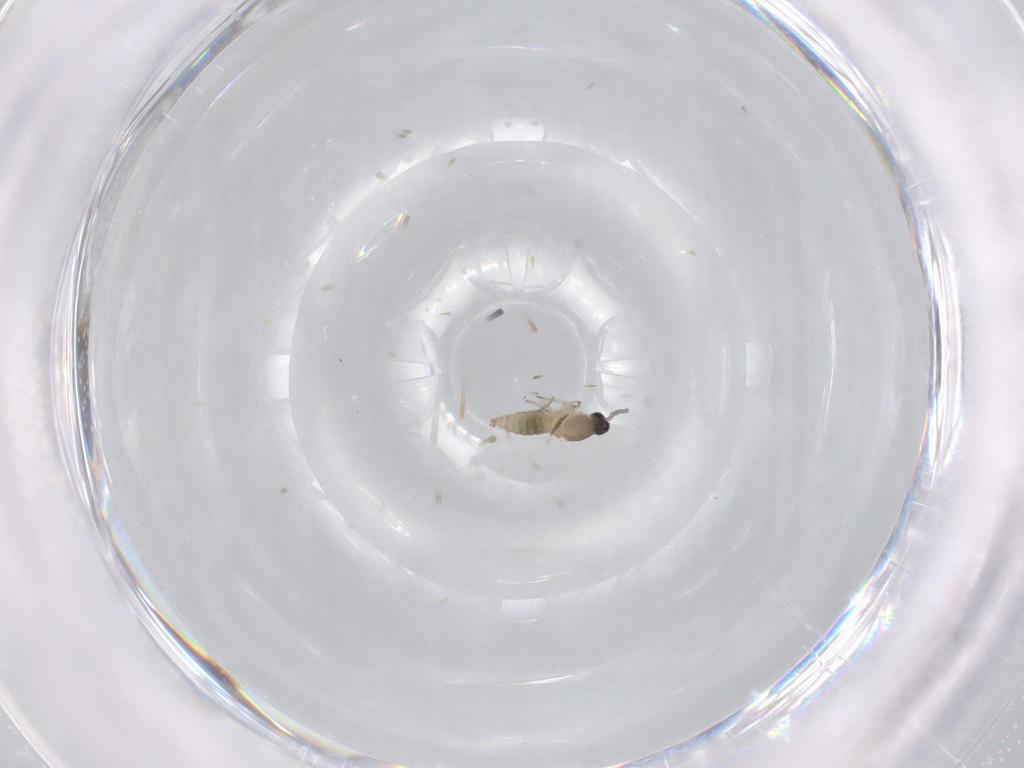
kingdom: Animalia
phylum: Arthropoda
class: Insecta
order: Diptera
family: Cecidomyiidae
